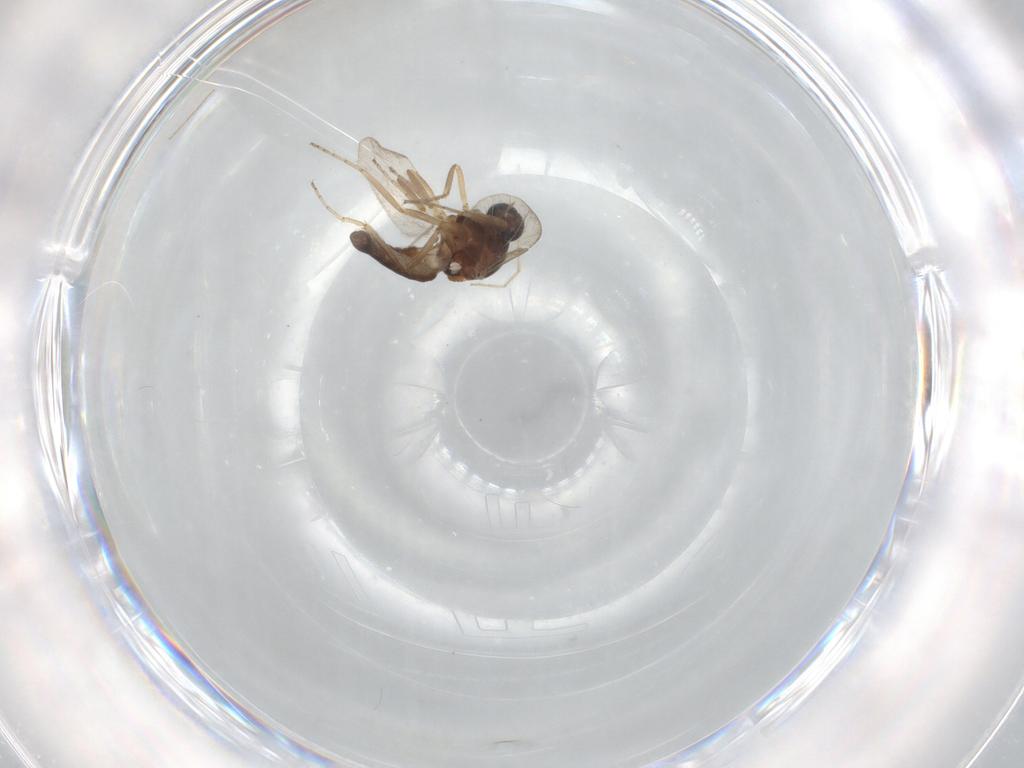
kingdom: Animalia
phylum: Arthropoda
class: Insecta
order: Diptera
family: Ceratopogonidae
